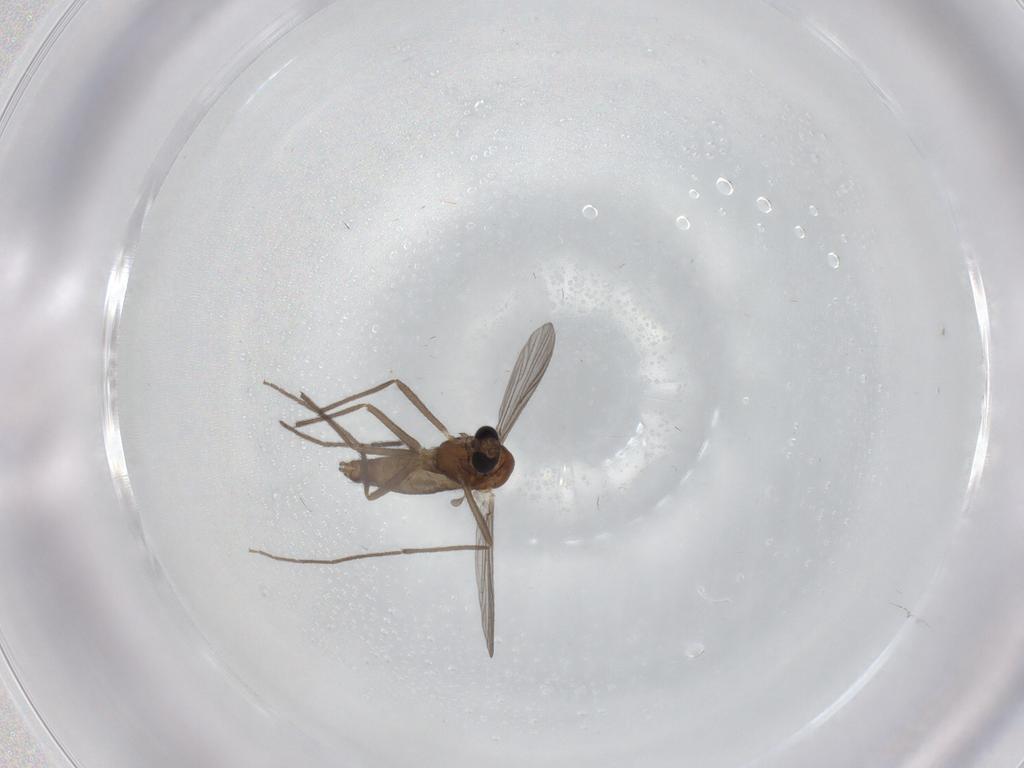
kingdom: Animalia
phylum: Arthropoda
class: Insecta
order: Diptera
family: Chironomidae
